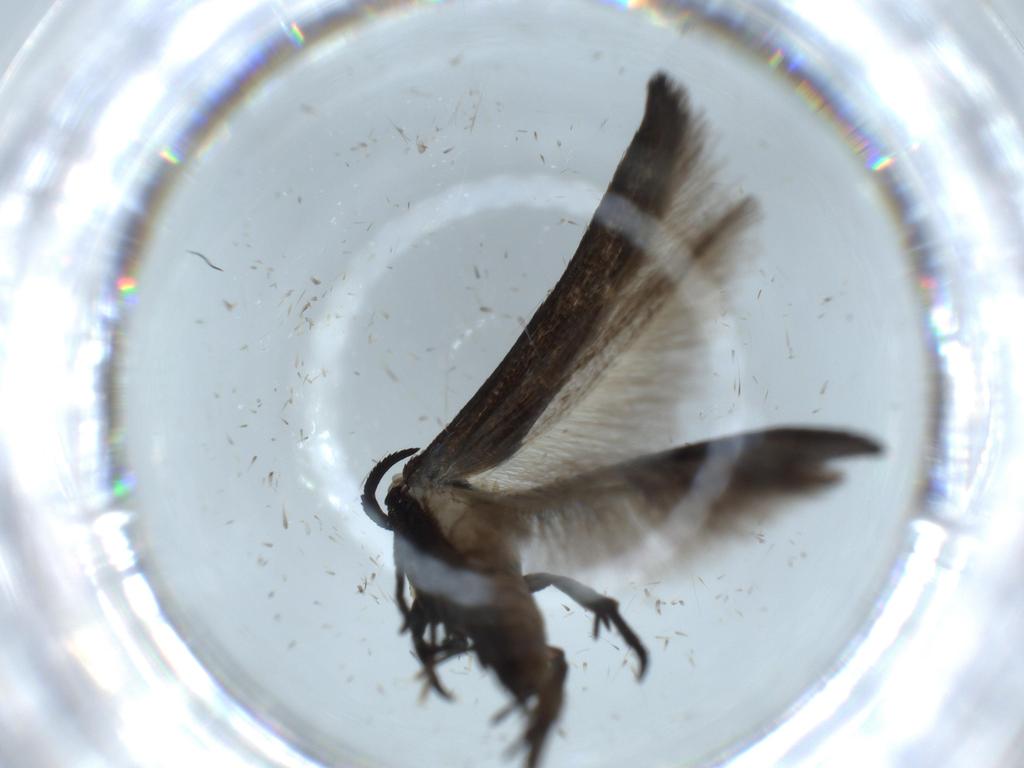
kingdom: Animalia
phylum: Arthropoda
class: Insecta
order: Lepidoptera
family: Cosmopterigidae
